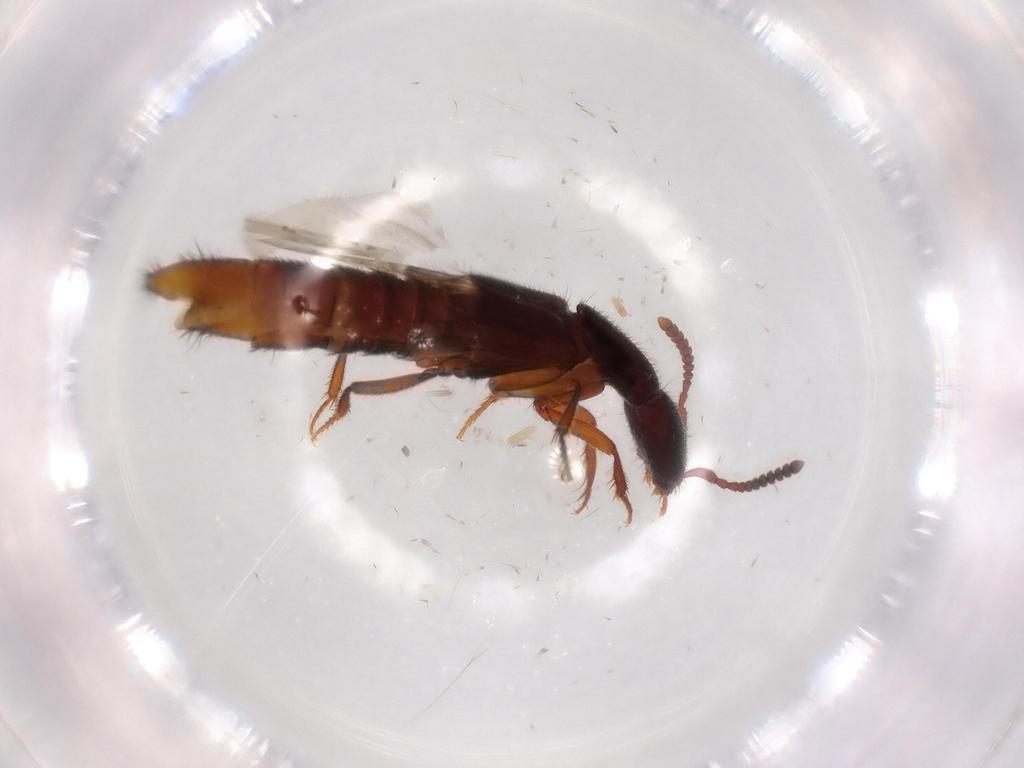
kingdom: Animalia
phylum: Arthropoda
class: Insecta
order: Coleoptera
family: Staphylinidae
